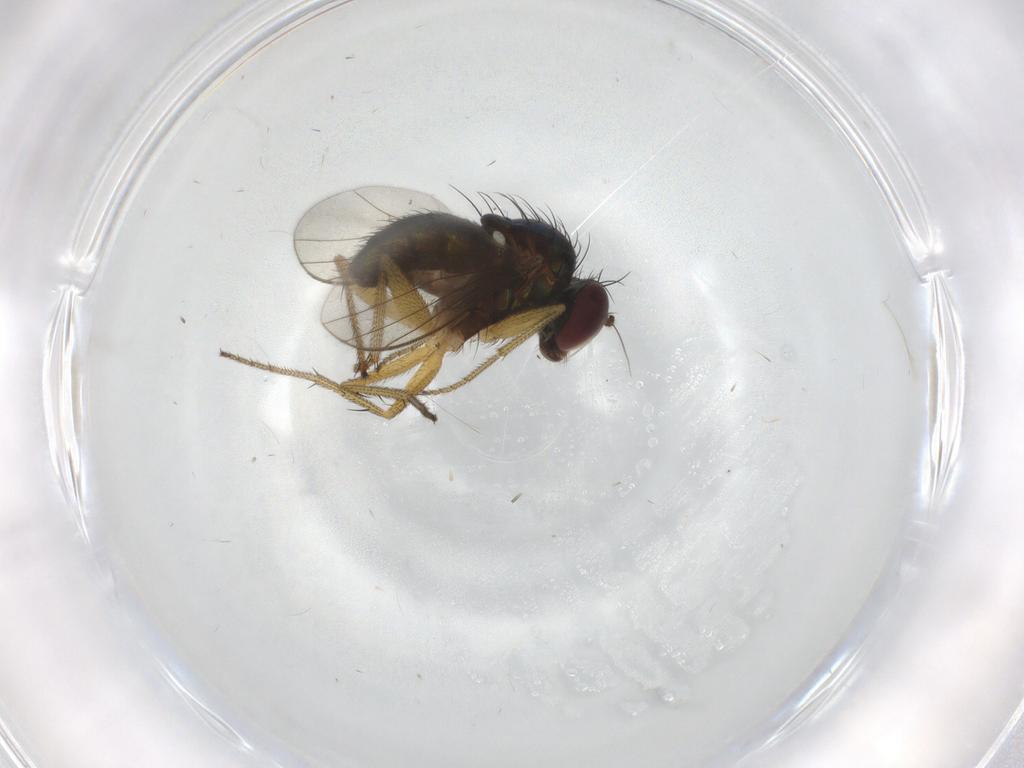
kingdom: Animalia
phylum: Arthropoda
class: Insecta
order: Diptera
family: Dolichopodidae
